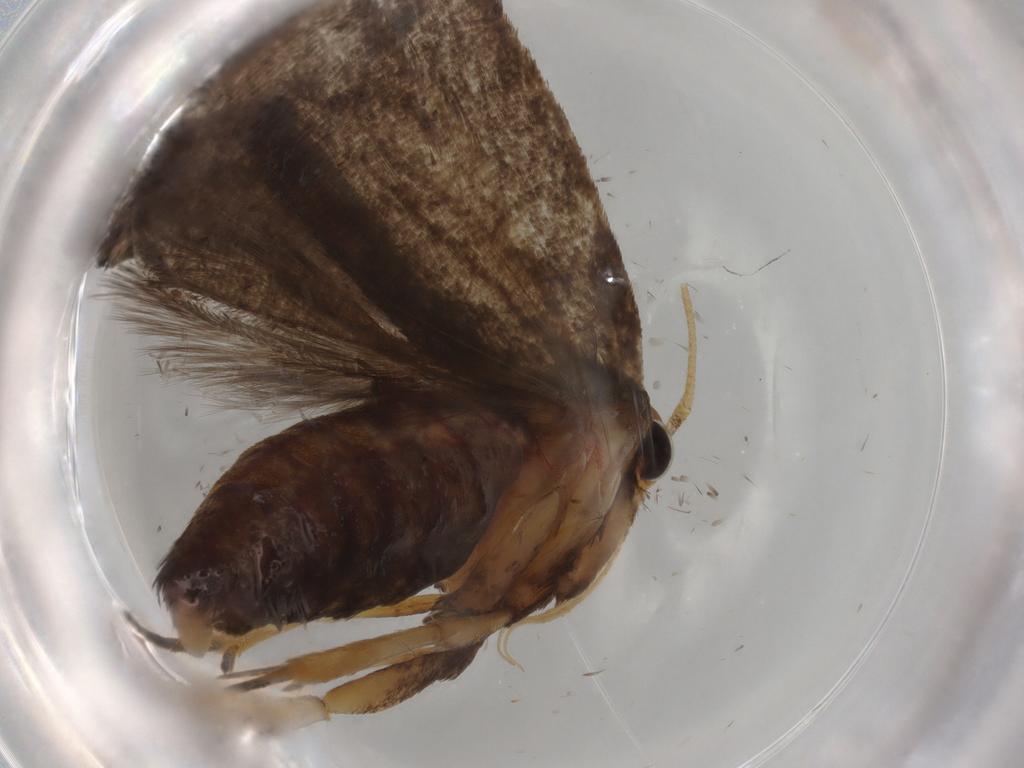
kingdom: Animalia
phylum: Arthropoda
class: Insecta
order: Lepidoptera
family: Lecithoceridae
